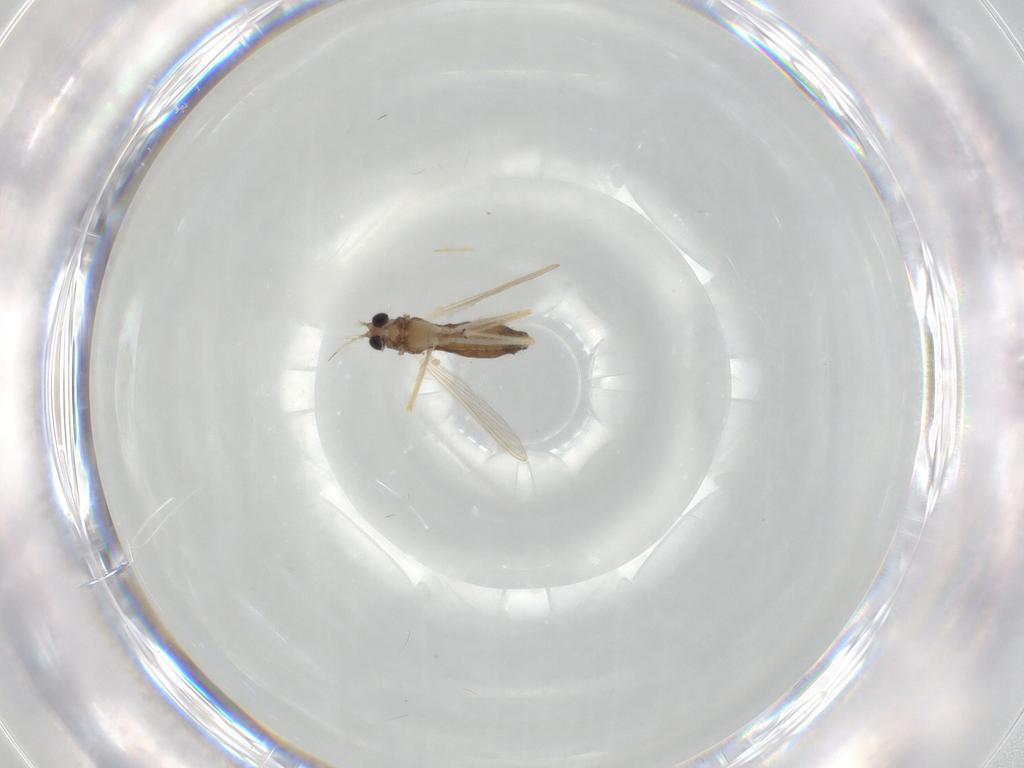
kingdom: Animalia
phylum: Arthropoda
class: Insecta
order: Diptera
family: Chironomidae
